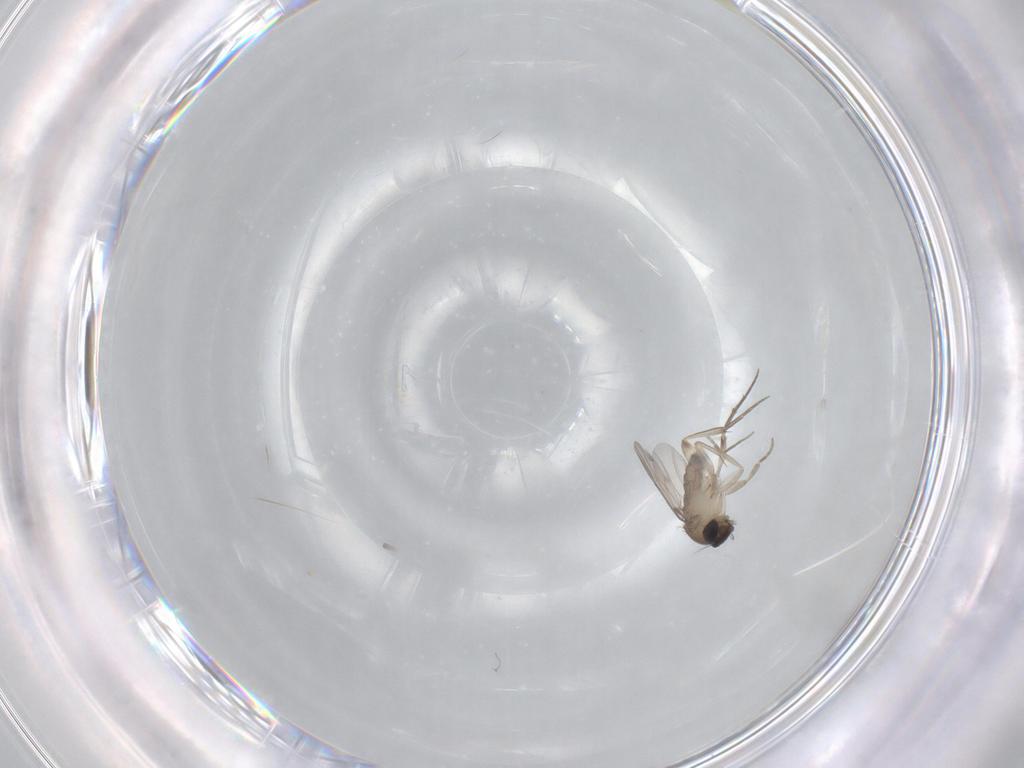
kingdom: Animalia
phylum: Arthropoda
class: Insecta
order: Diptera
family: Phoridae
